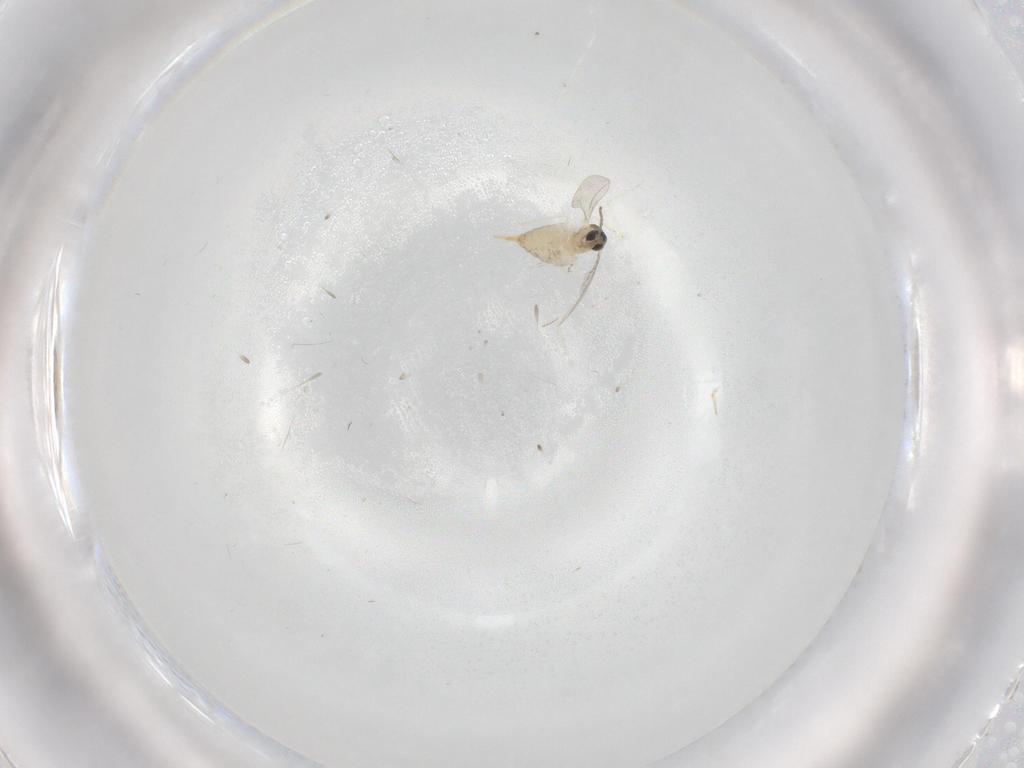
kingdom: Animalia
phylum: Arthropoda
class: Insecta
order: Diptera
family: Cecidomyiidae
